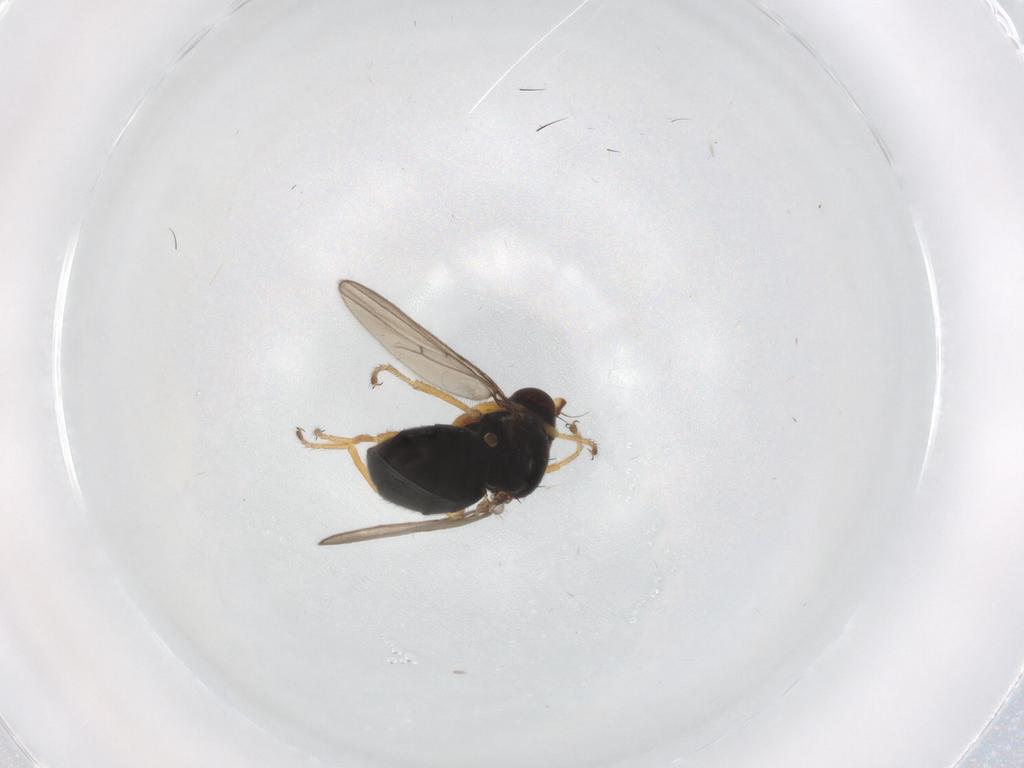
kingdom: Animalia
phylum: Arthropoda
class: Insecta
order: Diptera
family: Ephydridae
